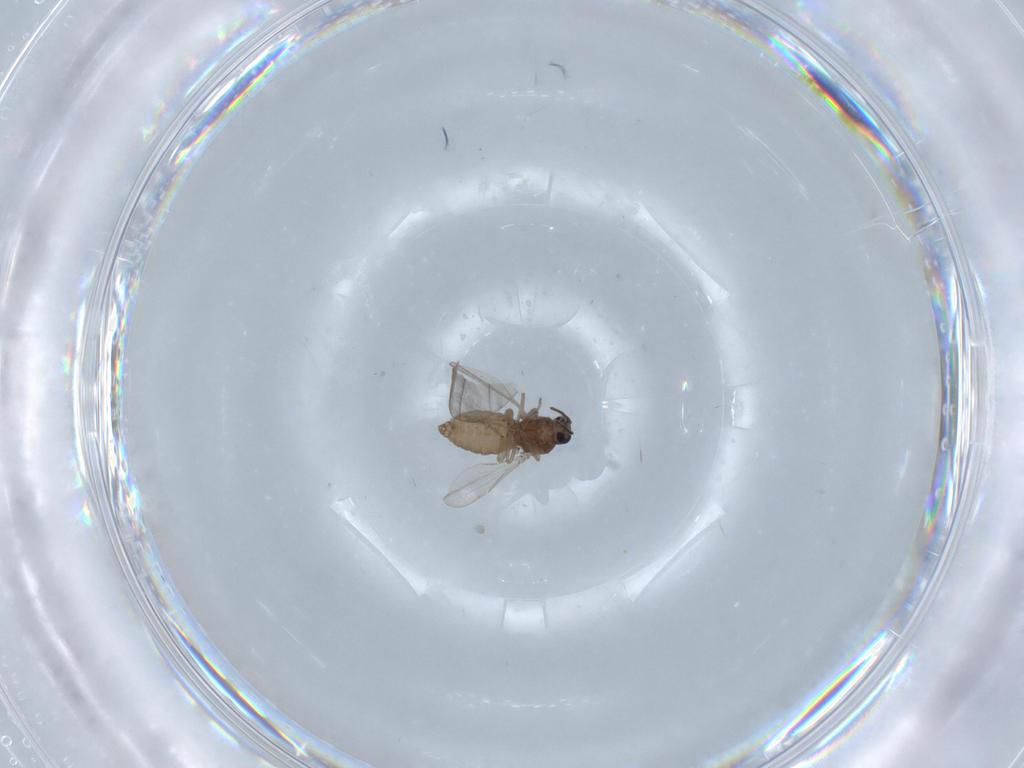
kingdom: Animalia
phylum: Arthropoda
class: Insecta
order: Diptera
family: Ceratopogonidae
